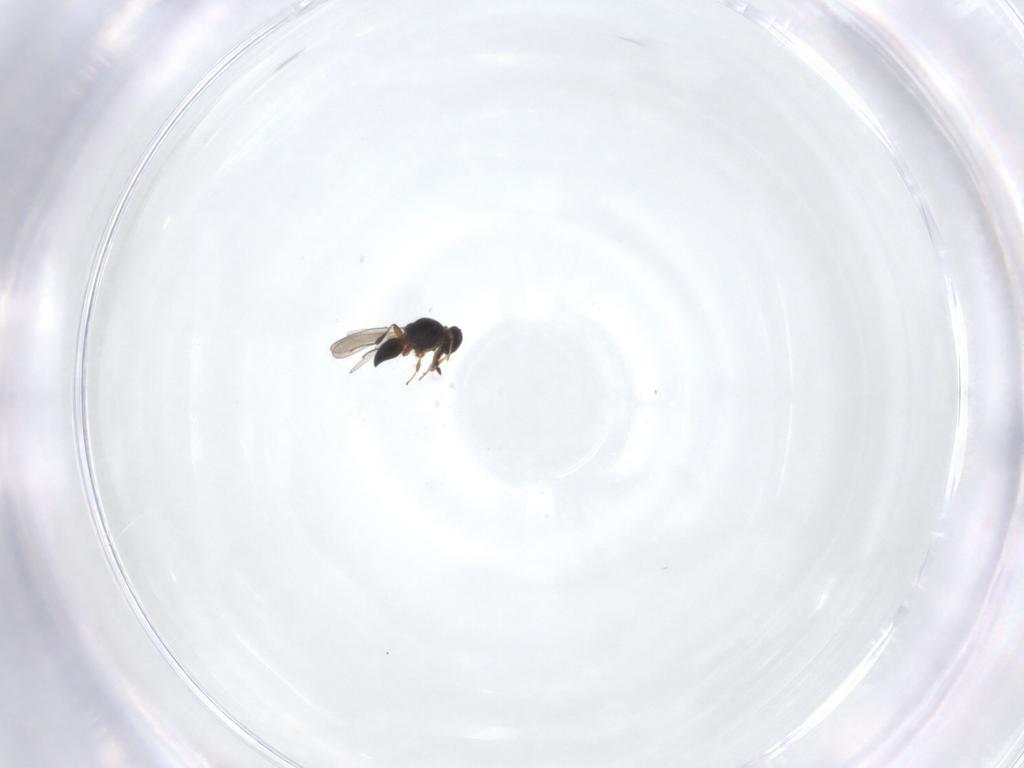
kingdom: Animalia
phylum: Arthropoda
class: Insecta
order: Hymenoptera
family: Platygastridae
